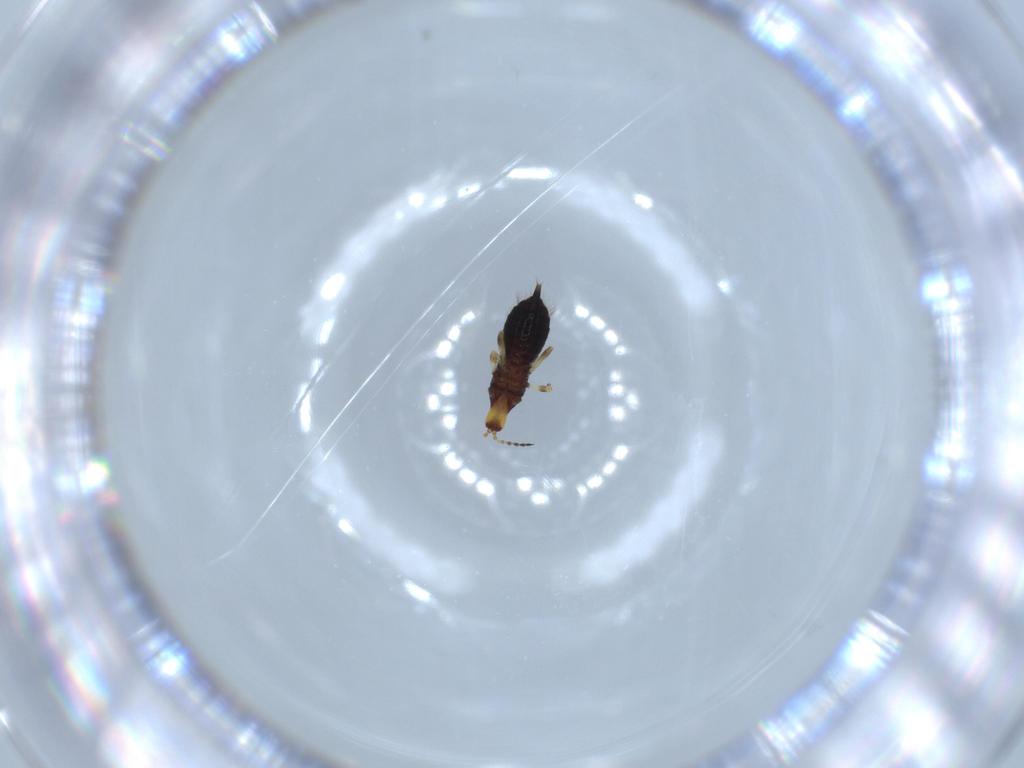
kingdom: Animalia
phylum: Arthropoda
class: Insecta
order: Thysanoptera
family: Phlaeothripidae
